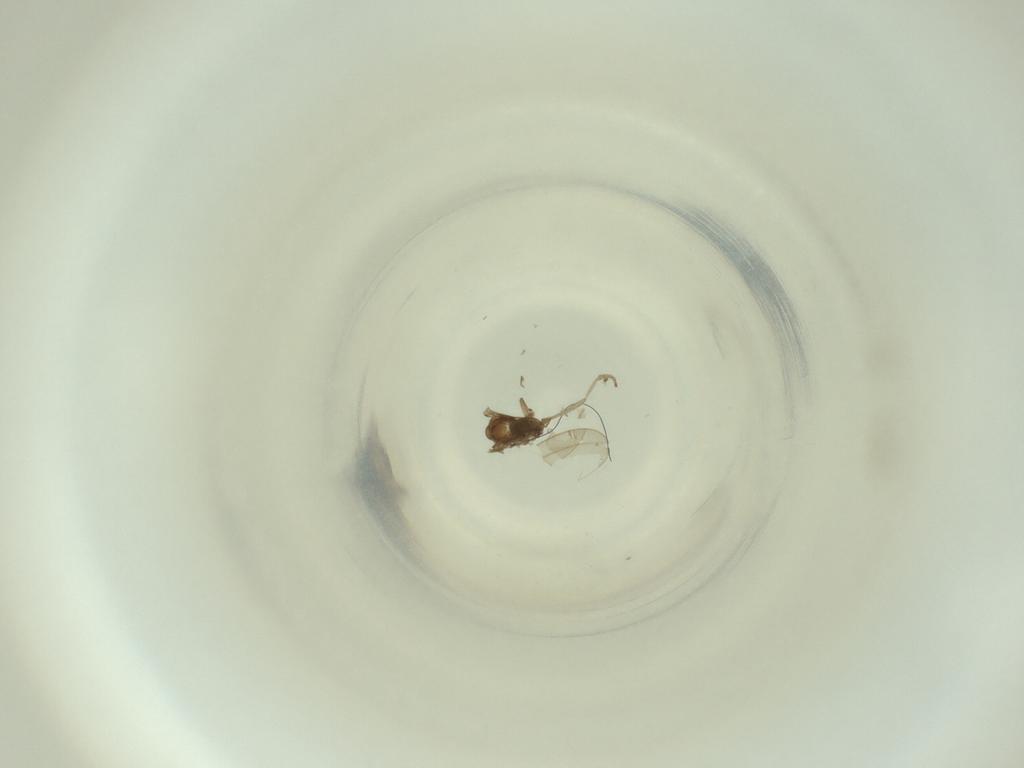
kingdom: Animalia
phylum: Arthropoda
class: Insecta
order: Diptera
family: Cecidomyiidae
